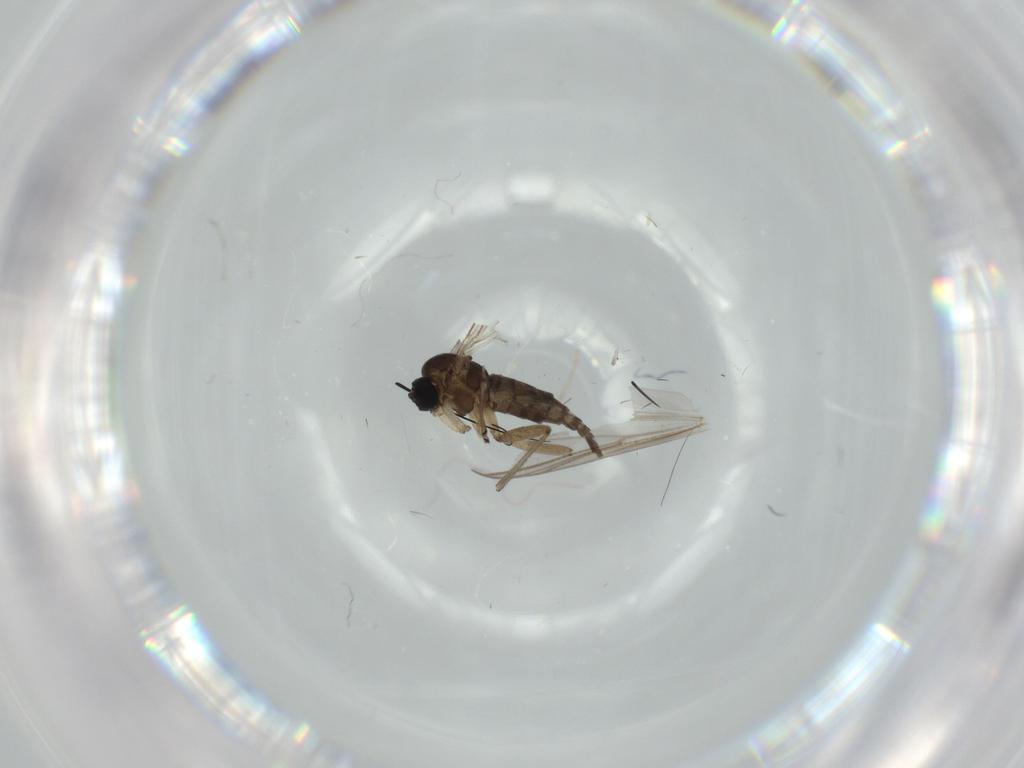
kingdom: Animalia
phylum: Arthropoda
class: Insecta
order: Diptera
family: Sciaridae
